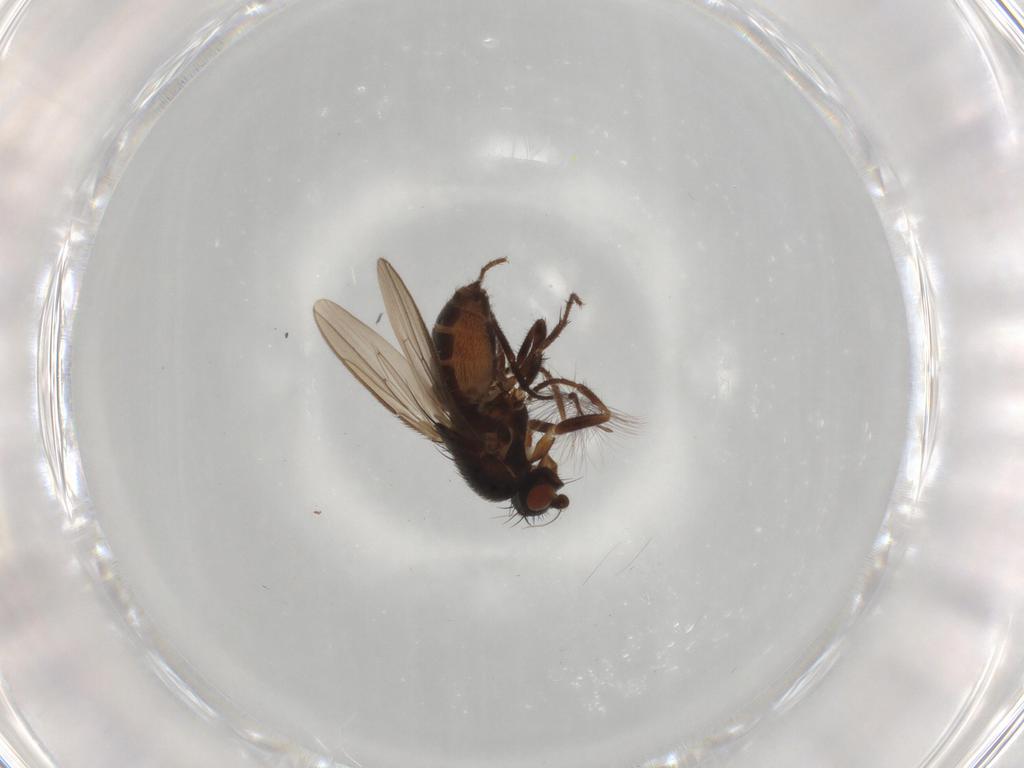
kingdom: Animalia
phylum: Arthropoda
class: Insecta
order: Diptera
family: Sphaeroceridae
